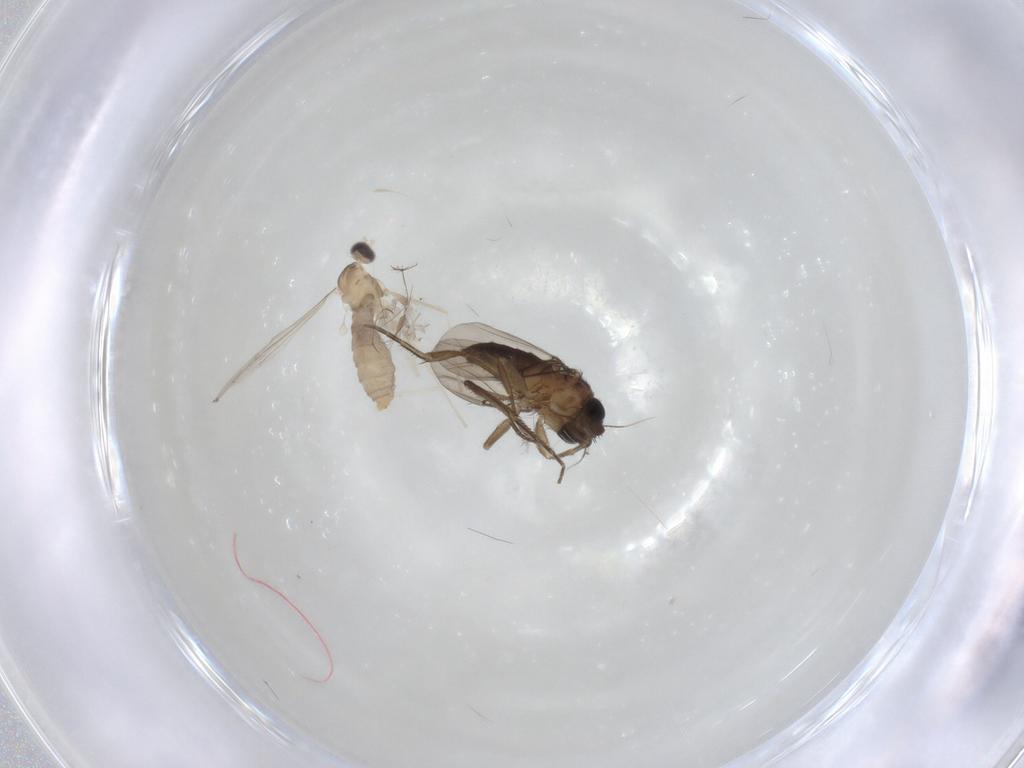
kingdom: Animalia
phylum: Arthropoda
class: Insecta
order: Diptera
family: Phoridae
